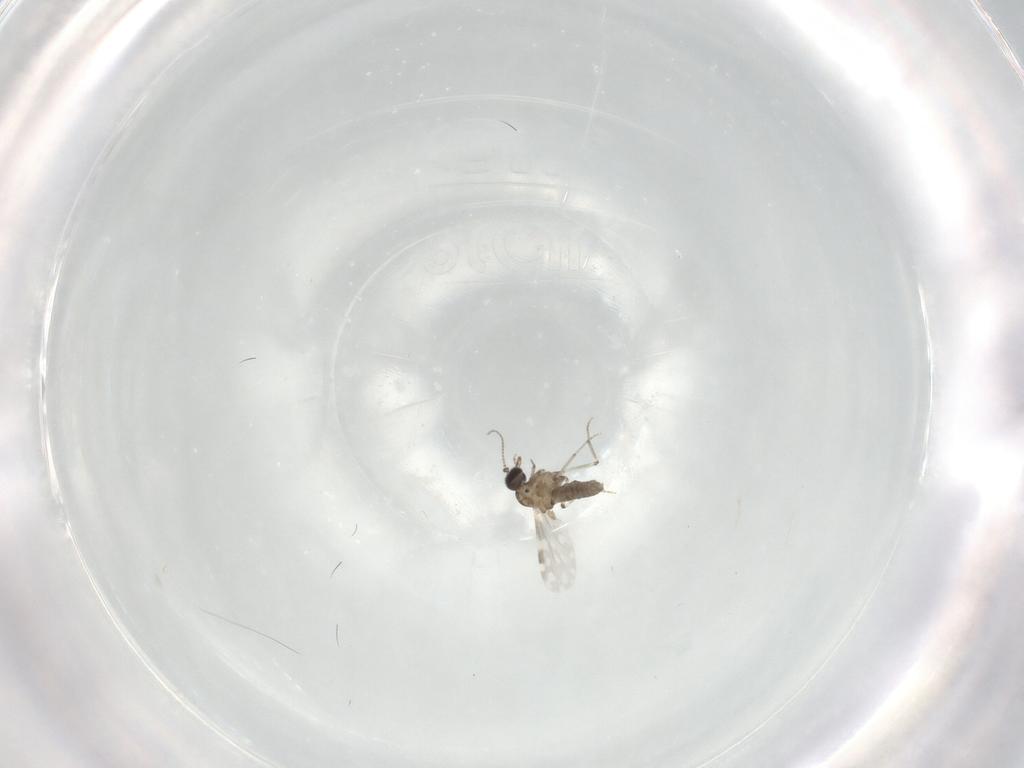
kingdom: Animalia
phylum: Arthropoda
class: Insecta
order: Diptera
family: Ceratopogonidae
